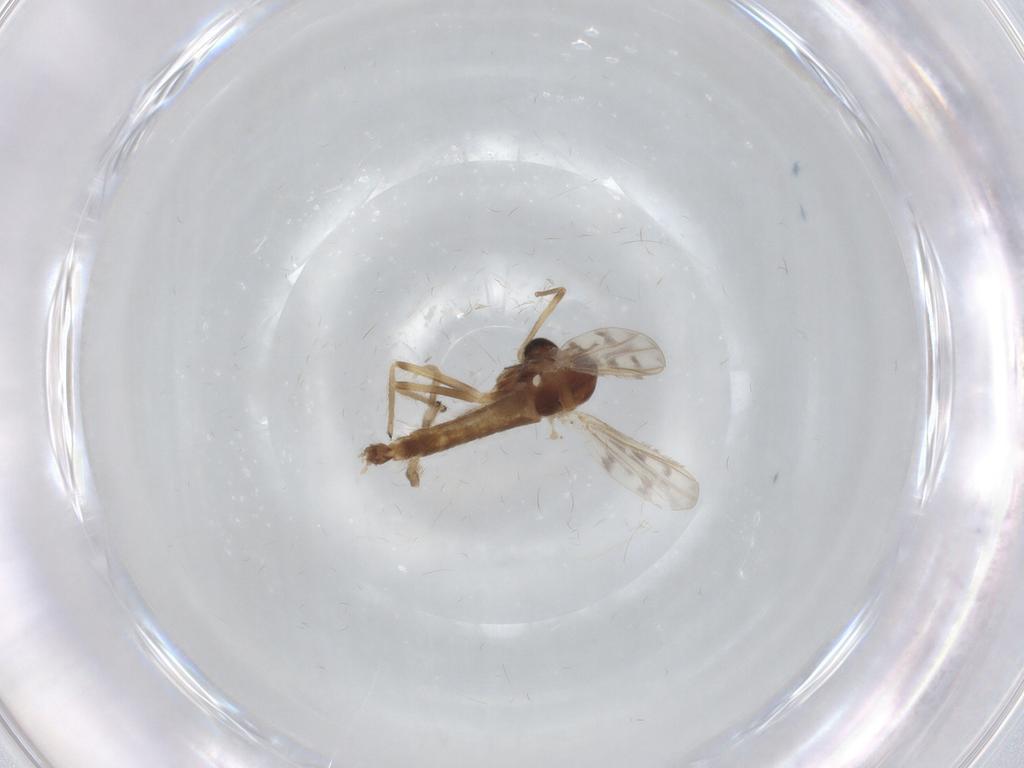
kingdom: Animalia
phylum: Arthropoda
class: Insecta
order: Diptera
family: Chironomidae
